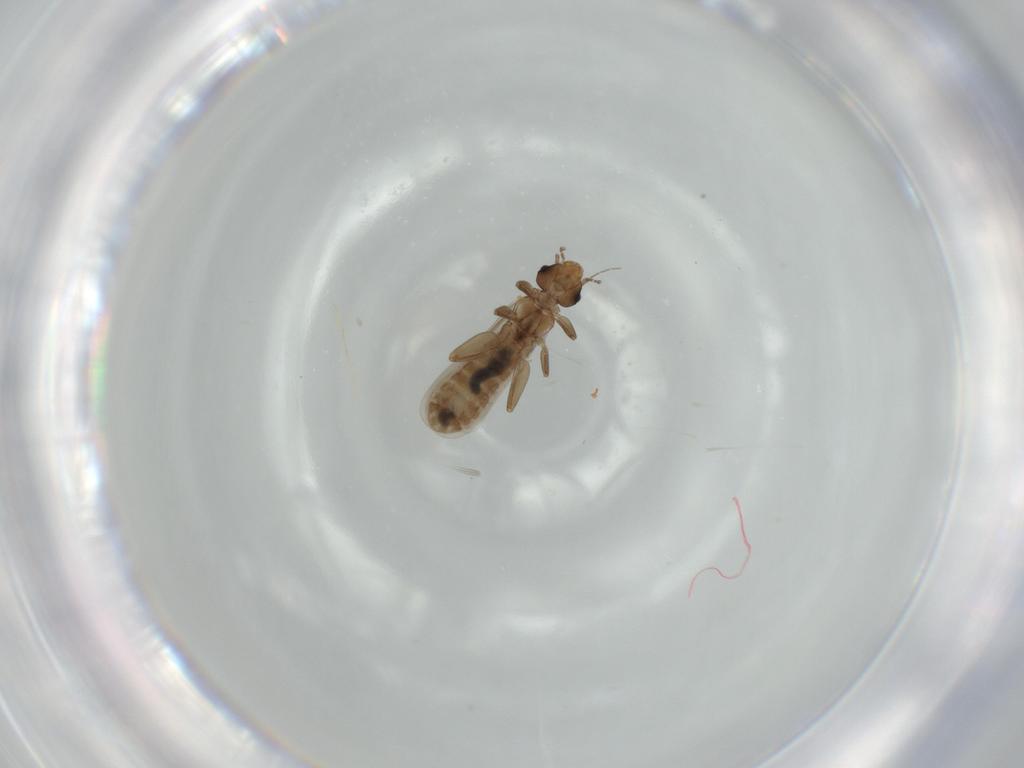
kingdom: Animalia
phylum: Arthropoda
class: Insecta
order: Psocodea
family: Liposcelididae
